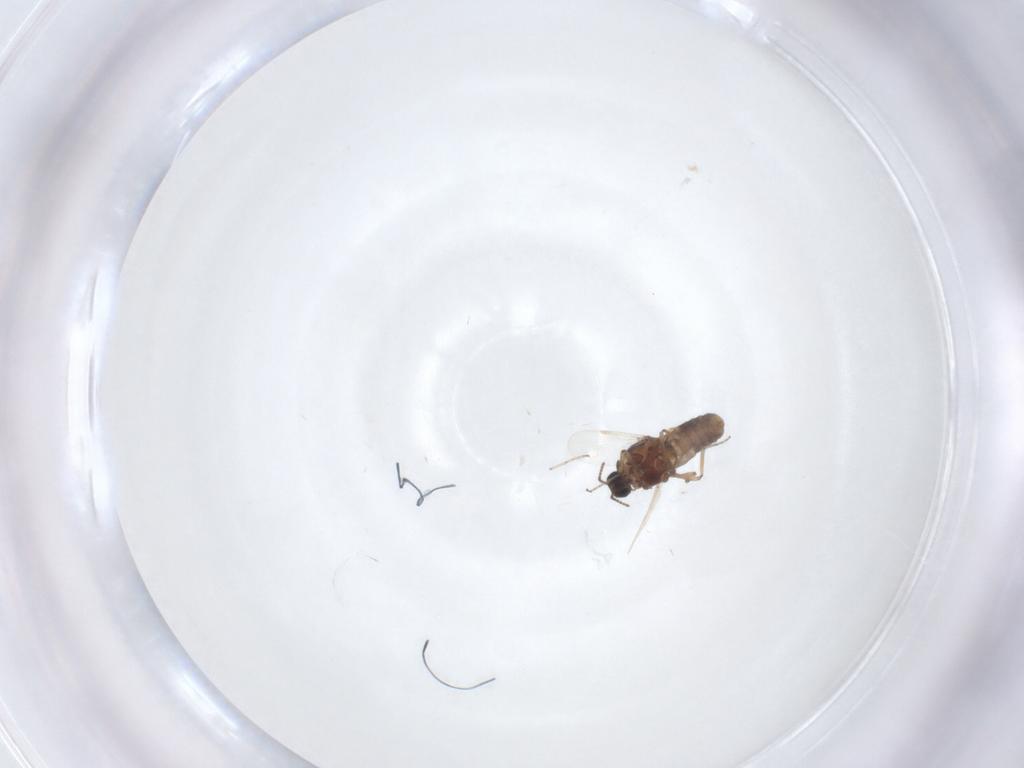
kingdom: Animalia
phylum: Arthropoda
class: Insecta
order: Diptera
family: Ceratopogonidae
